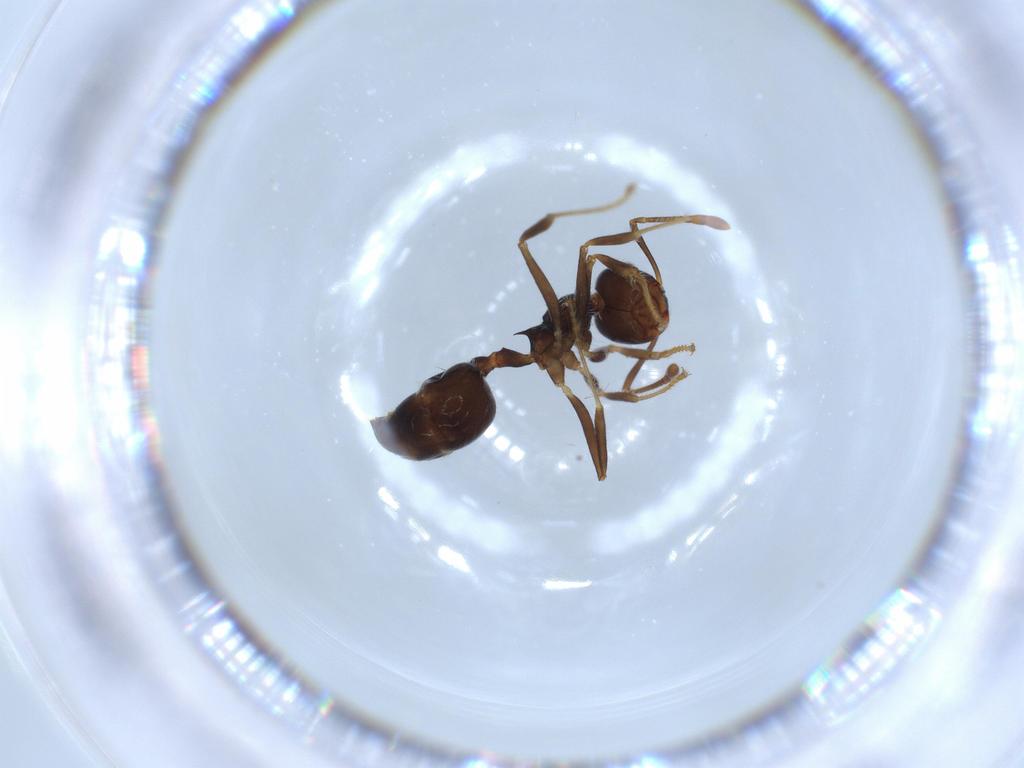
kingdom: Animalia
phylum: Arthropoda
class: Insecta
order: Hymenoptera
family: Formicidae
